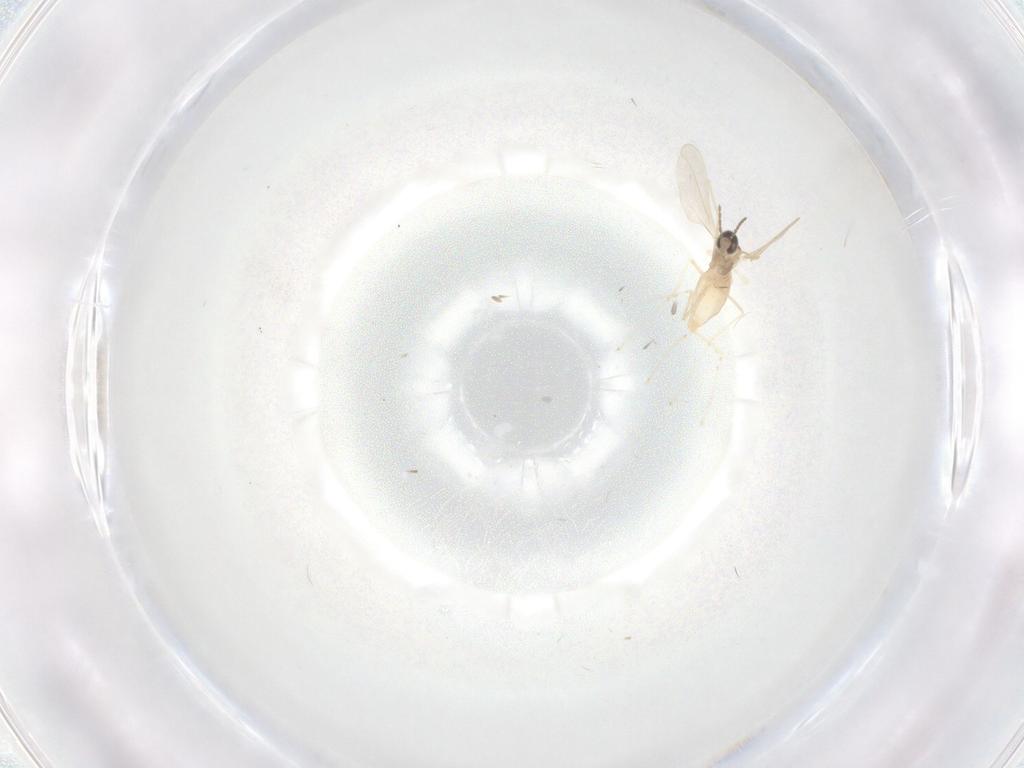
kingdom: Animalia
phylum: Arthropoda
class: Insecta
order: Diptera
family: Cecidomyiidae
